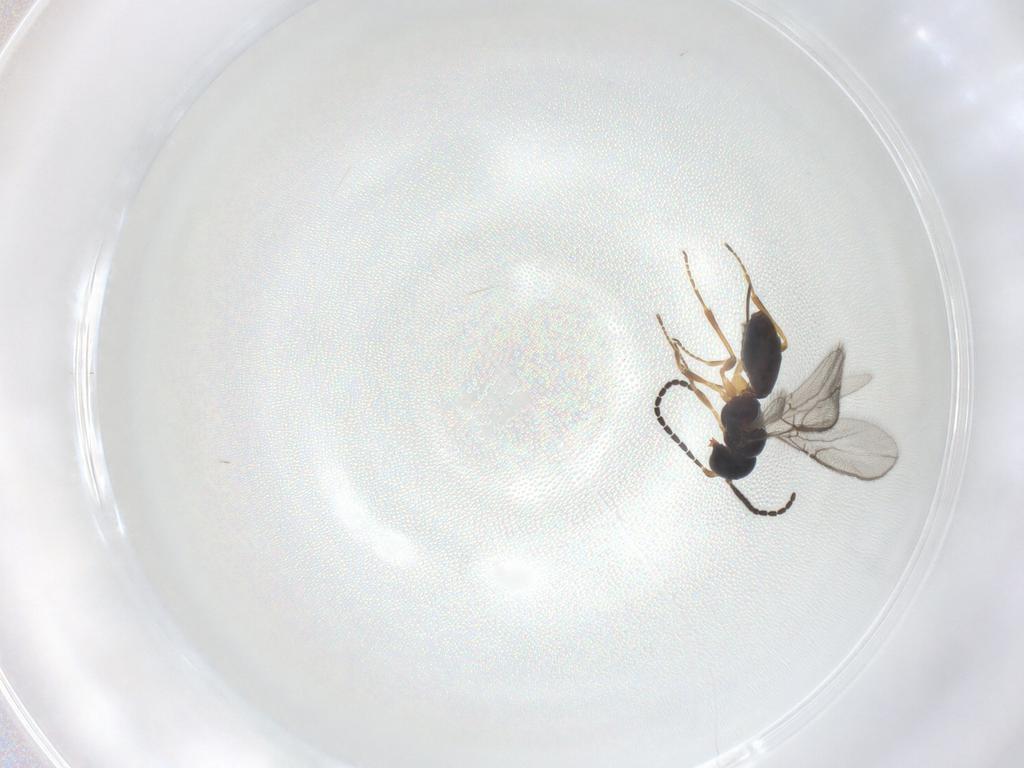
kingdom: Animalia
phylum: Arthropoda
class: Insecta
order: Hymenoptera
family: Braconidae
